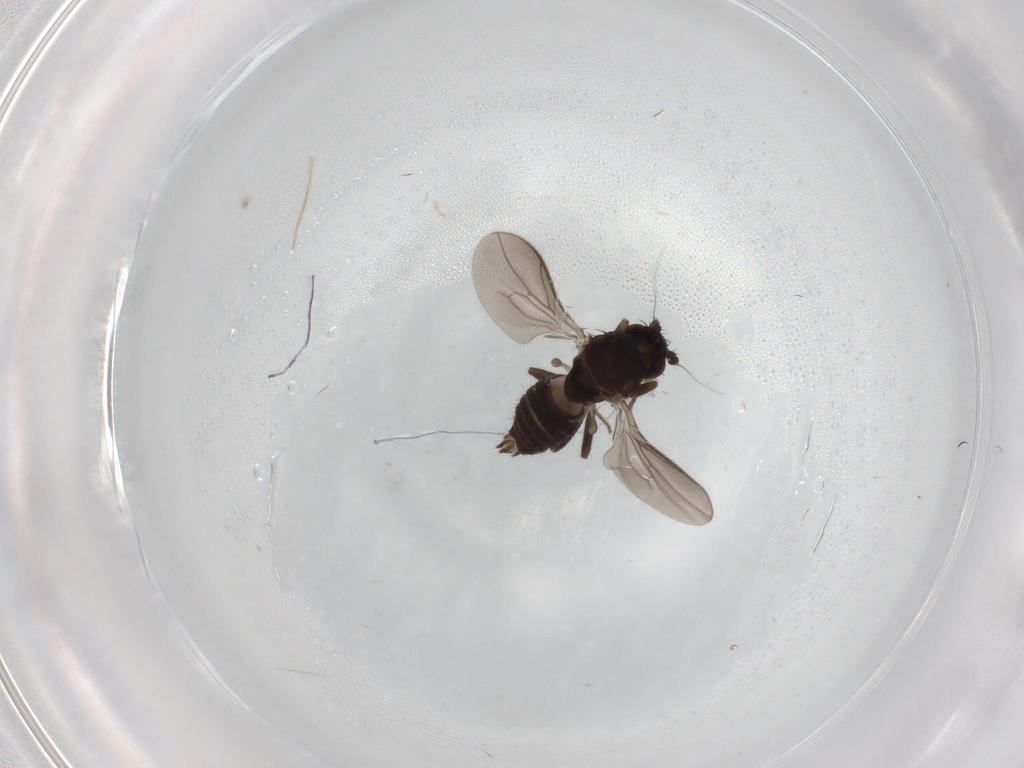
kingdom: Animalia
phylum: Arthropoda
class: Insecta
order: Diptera
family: Sphaeroceridae
